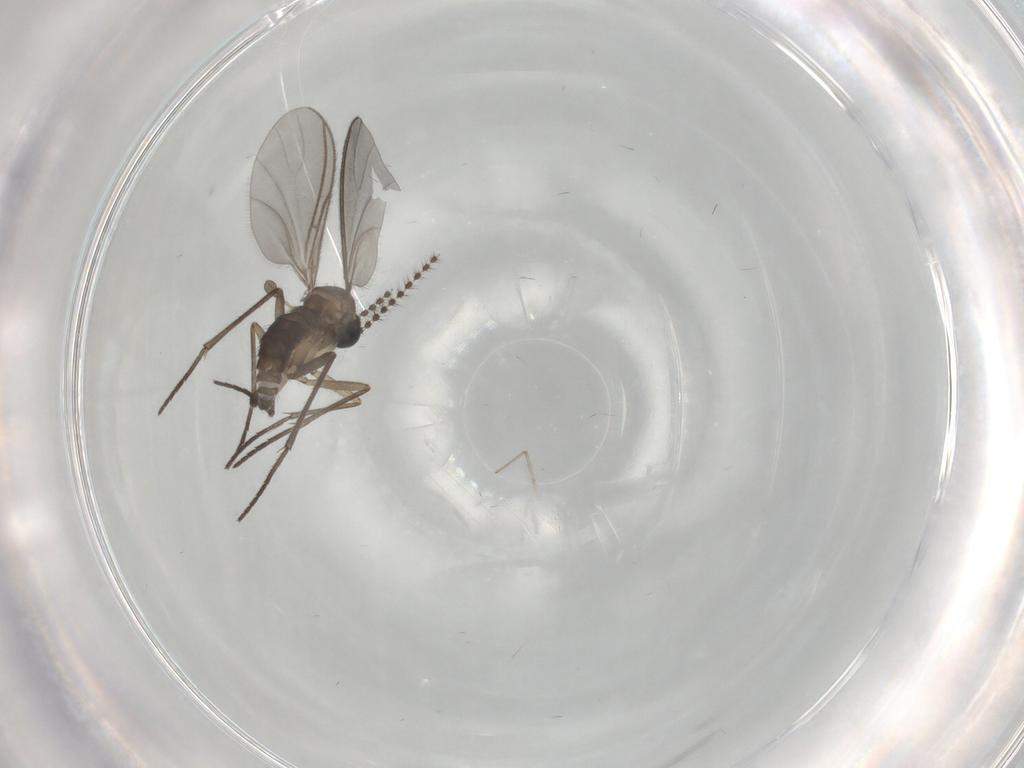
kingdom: Animalia
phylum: Arthropoda
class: Insecta
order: Diptera
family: Sciaridae
